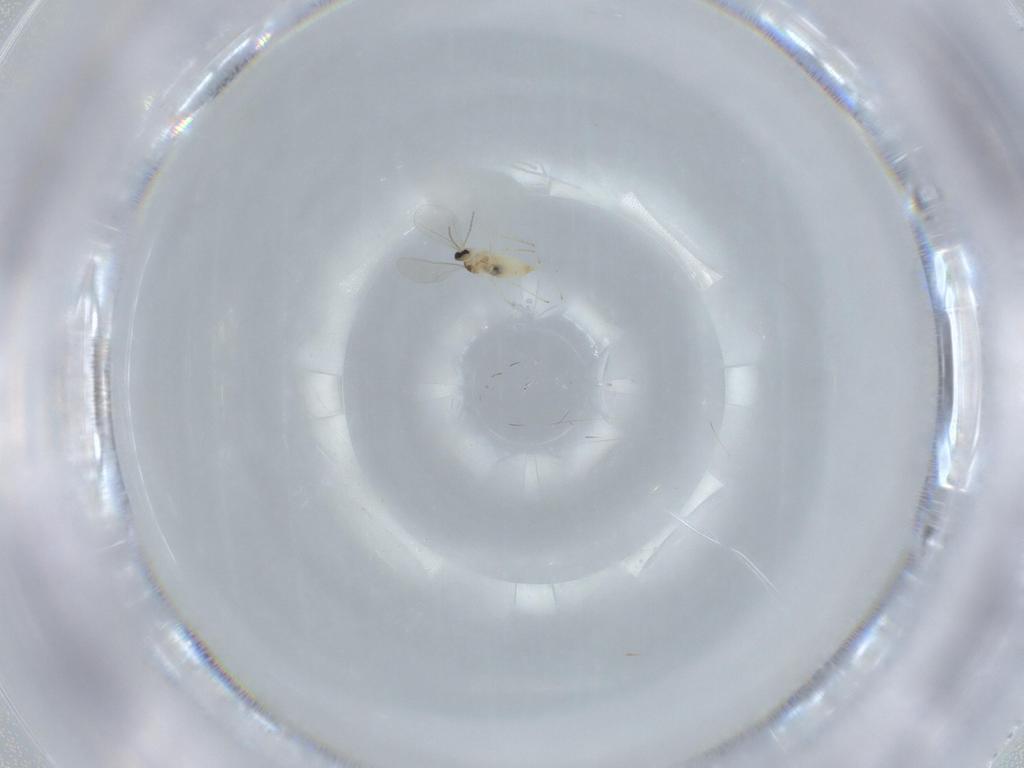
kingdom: Animalia
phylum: Arthropoda
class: Insecta
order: Diptera
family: Cecidomyiidae
